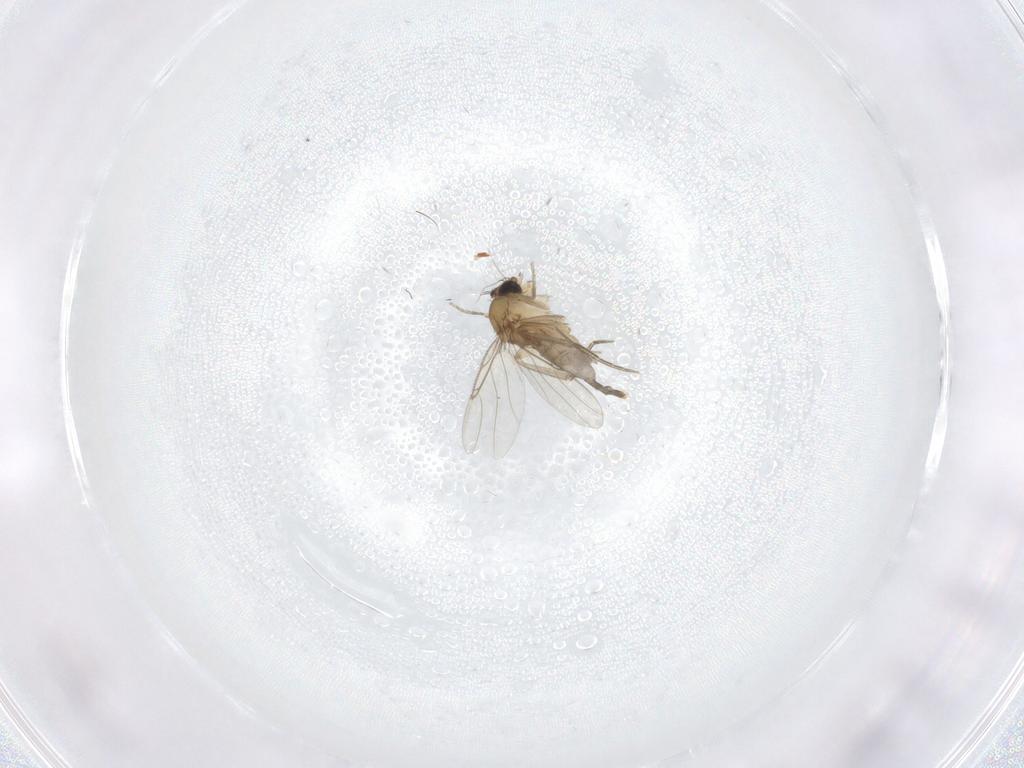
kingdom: Animalia
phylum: Arthropoda
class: Insecta
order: Diptera
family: Phoridae
